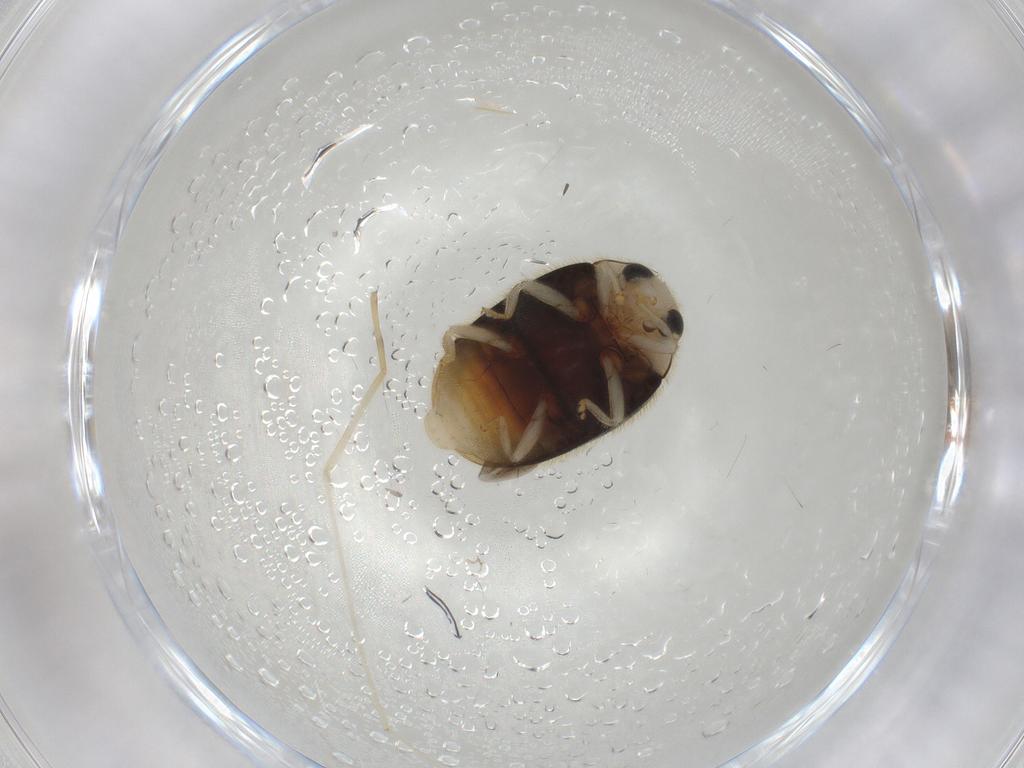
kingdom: Animalia
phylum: Arthropoda
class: Insecta
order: Coleoptera
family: Coccinellidae
